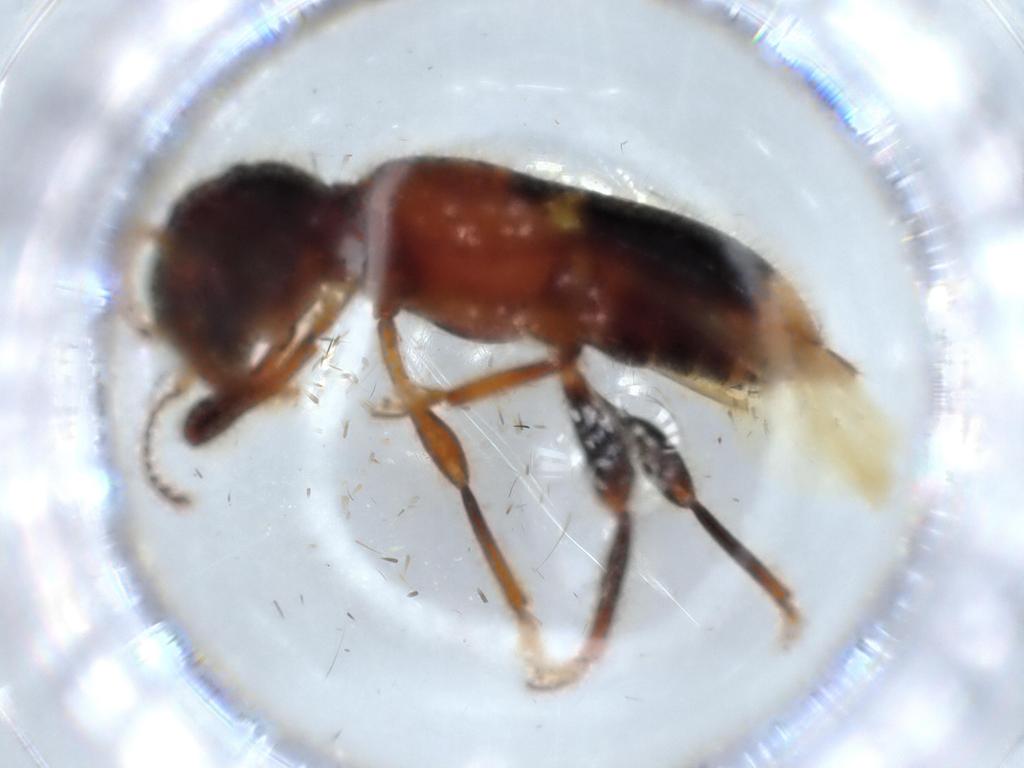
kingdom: Animalia
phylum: Arthropoda
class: Insecta
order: Coleoptera
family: Cleridae
